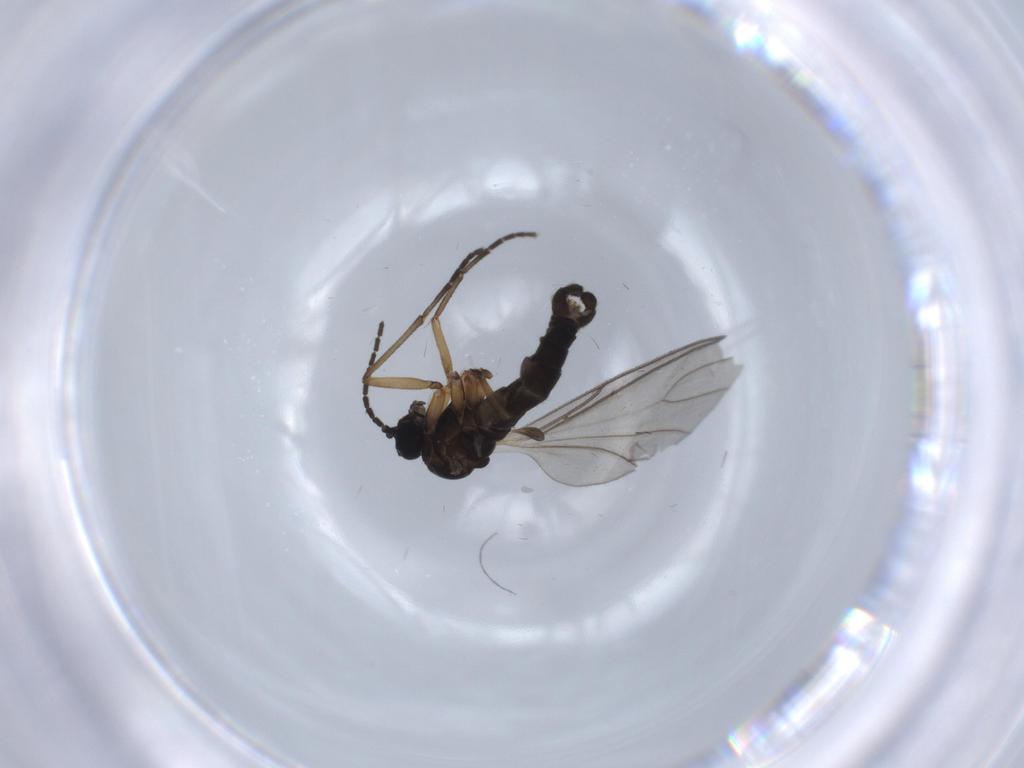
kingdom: Animalia
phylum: Arthropoda
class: Insecta
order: Diptera
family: Sciaridae
